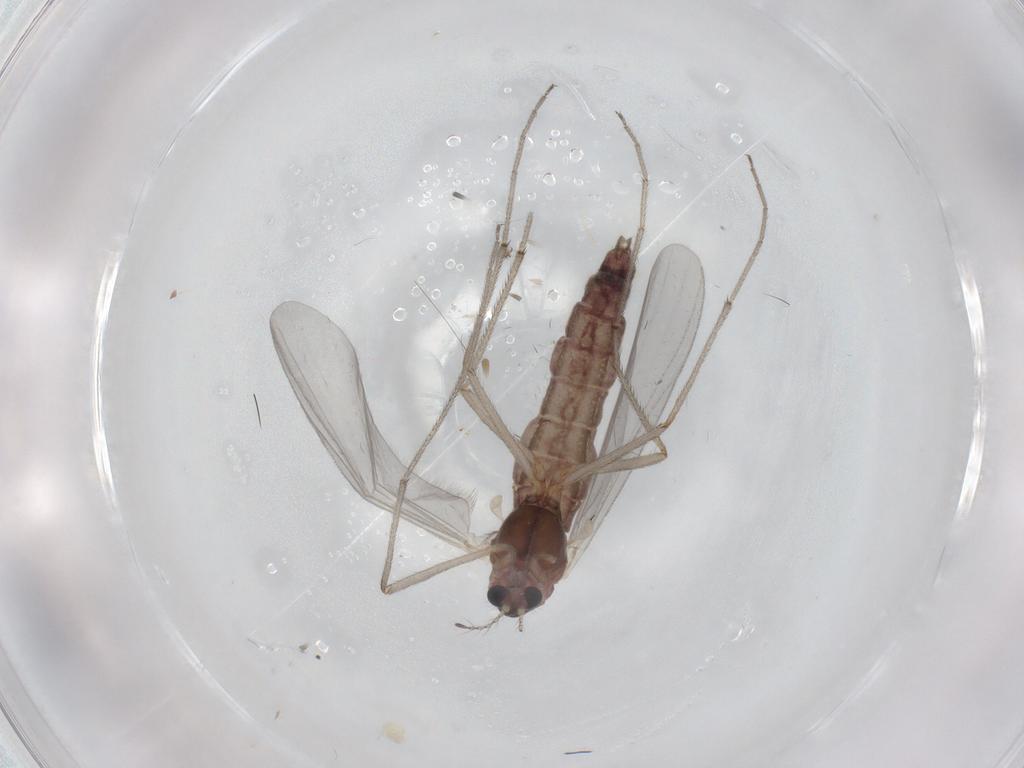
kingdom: Animalia
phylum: Arthropoda
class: Insecta
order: Diptera
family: Chironomidae
